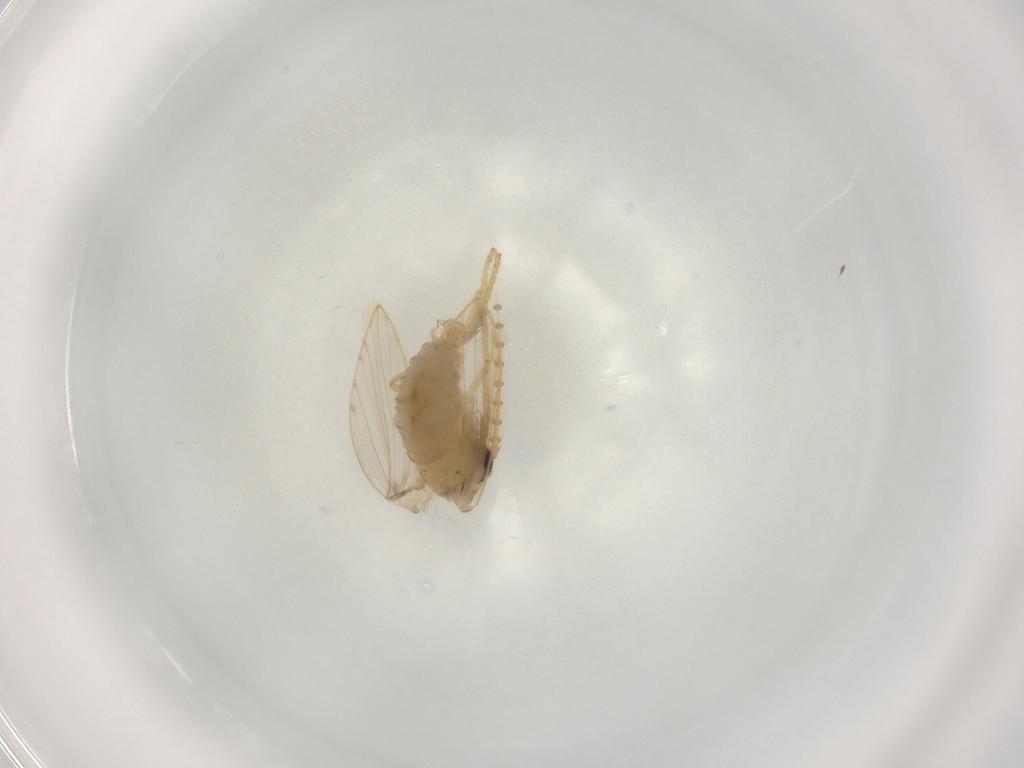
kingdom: Animalia
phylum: Arthropoda
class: Insecta
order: Diptera
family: Psychodidae
